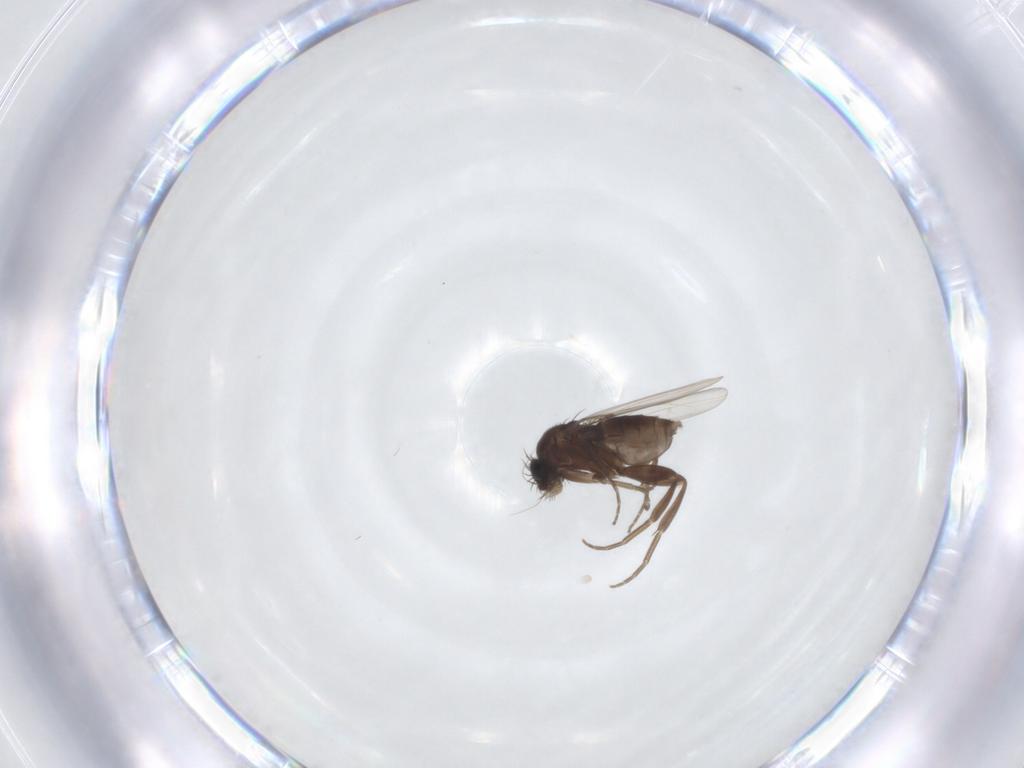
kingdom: Animalia
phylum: Arthropoda
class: Insecta
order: Diptera
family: Phoridae
